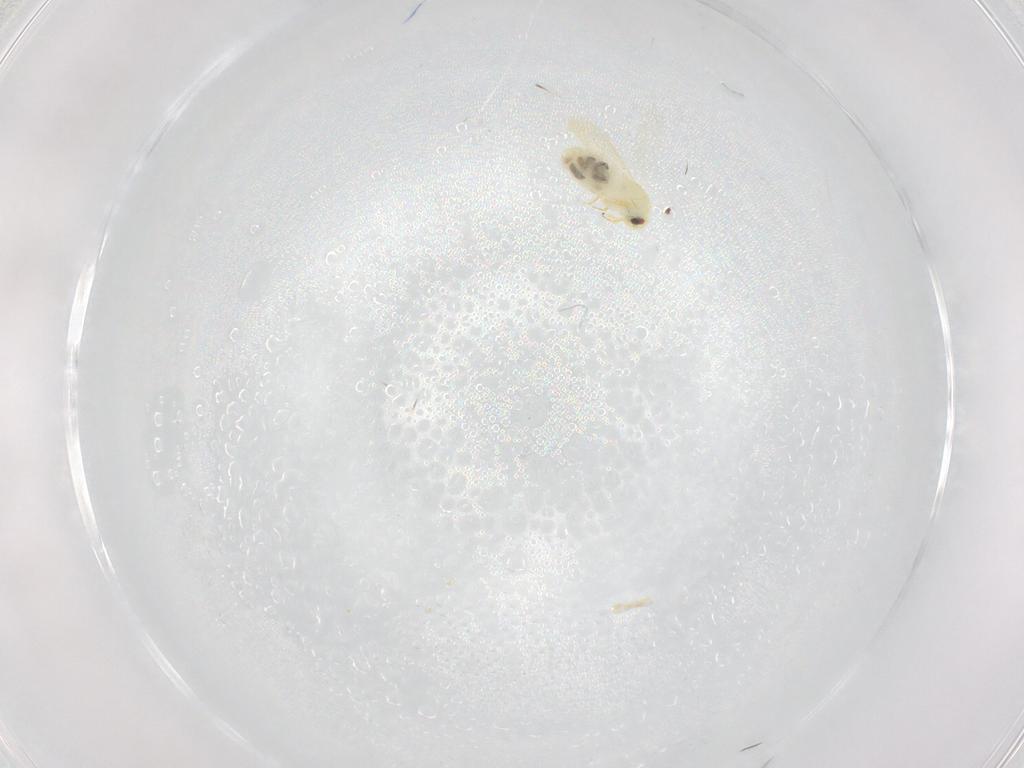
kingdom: Animalia
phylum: Arthropoda
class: Insecta
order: Hemiptera
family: Aleyrodidae
